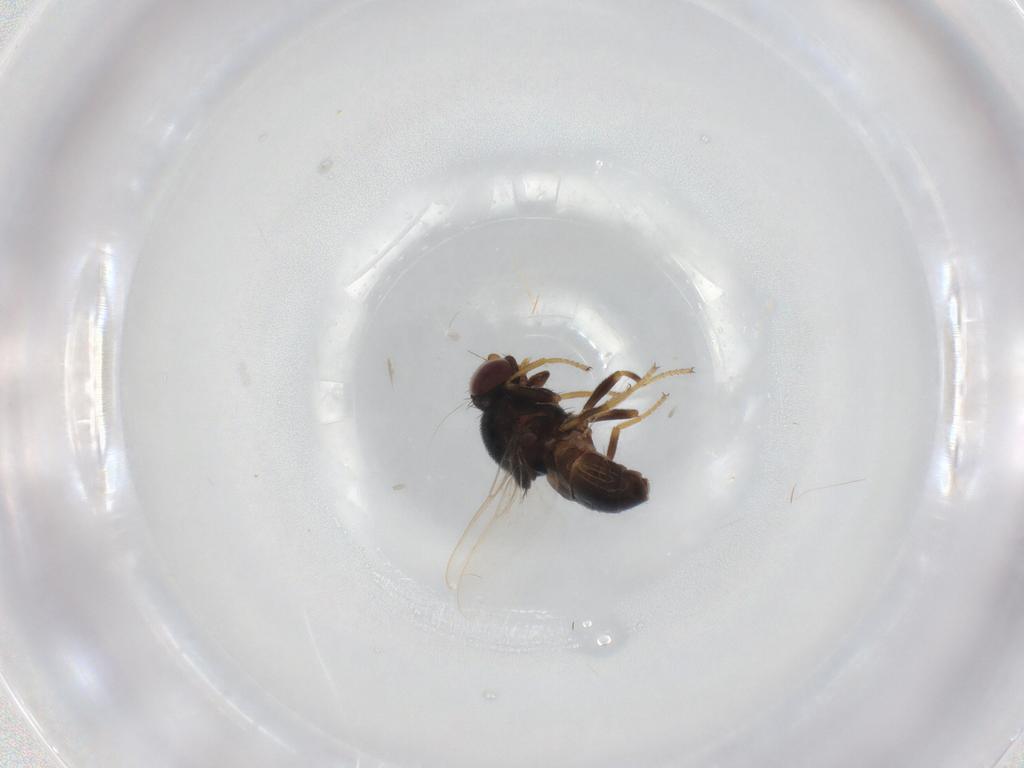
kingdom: Animalia
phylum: Arthropoda
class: Insecta
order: Diptera
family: Chloropidae
